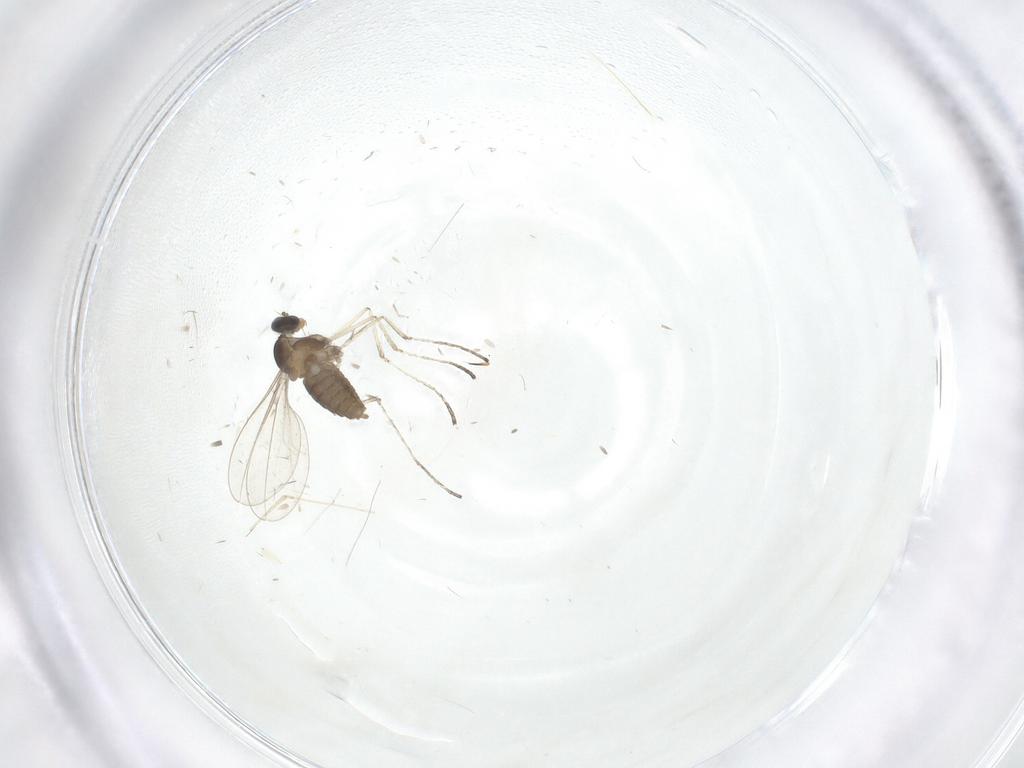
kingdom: Animalia
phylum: Arthropoda
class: Insecta
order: Diptera
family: Cecidomyiidae
